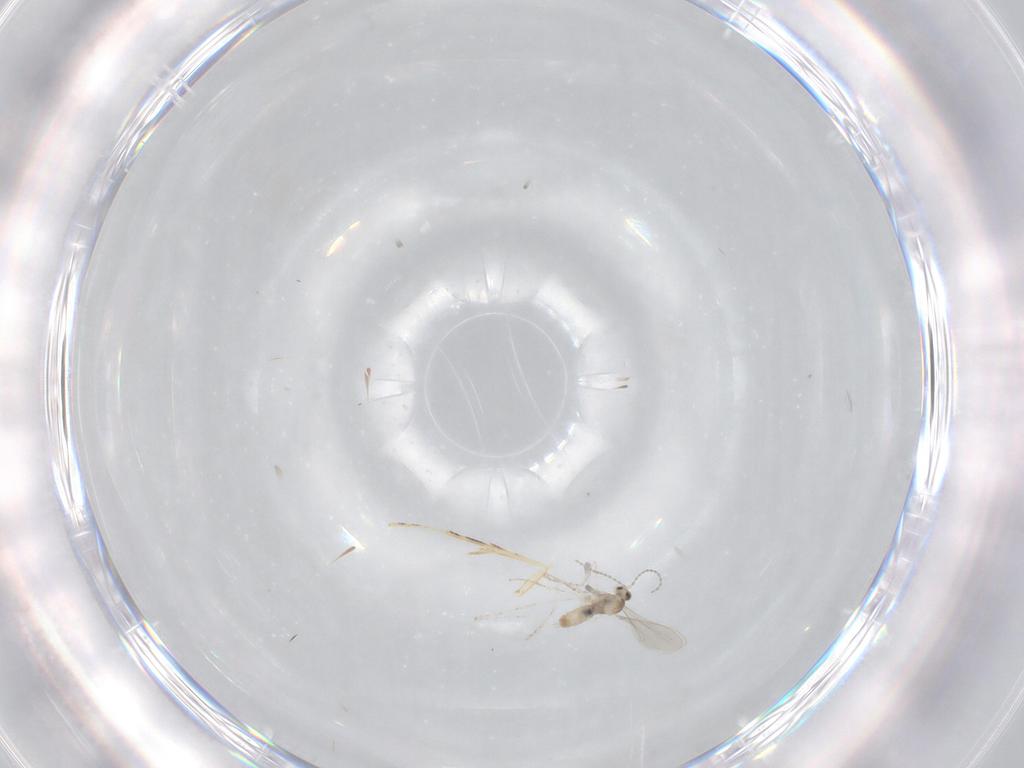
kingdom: Animalia
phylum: Arthropoda
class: Insecta
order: Diptera
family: Cecidomyiidae
